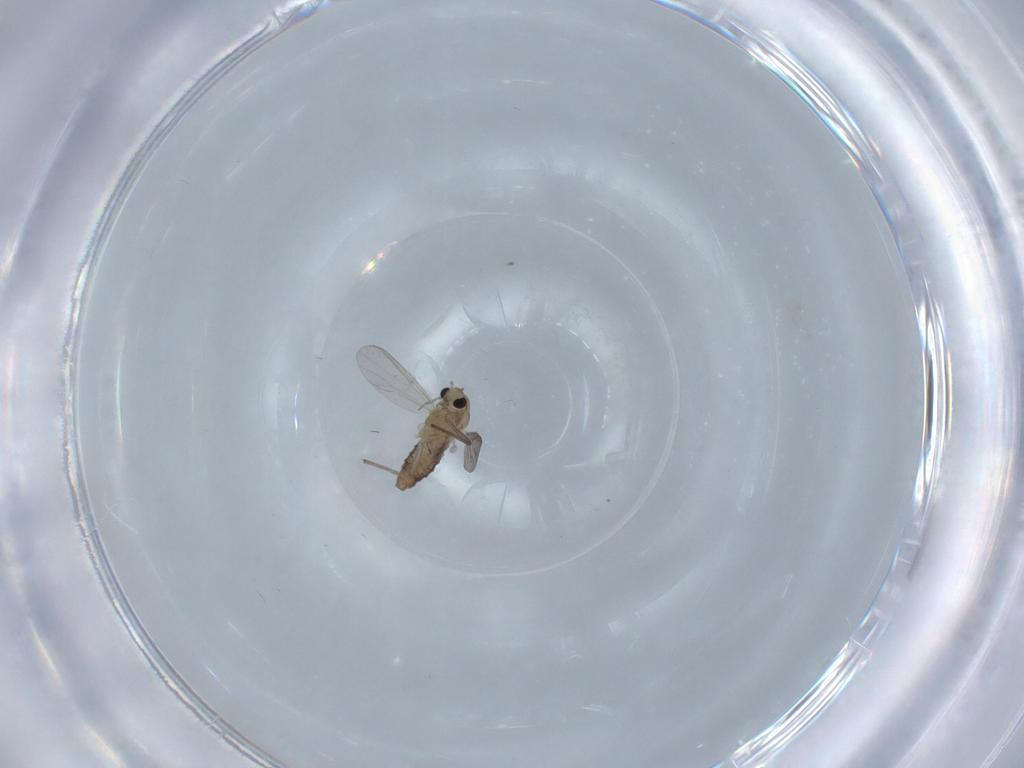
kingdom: Animalia
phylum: Arthropoda
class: Insecta
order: Diptera
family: Chironomidae
